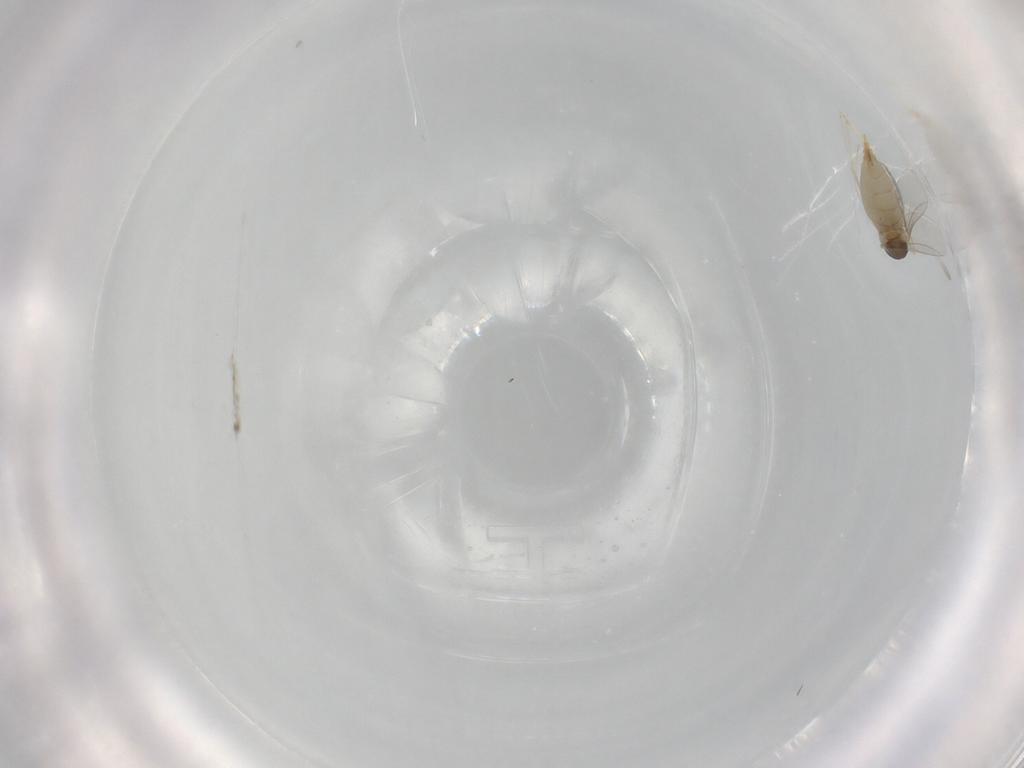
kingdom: Animalia
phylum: Arthropoda
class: Insecta
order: Diptera
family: Cecidomyiidae
